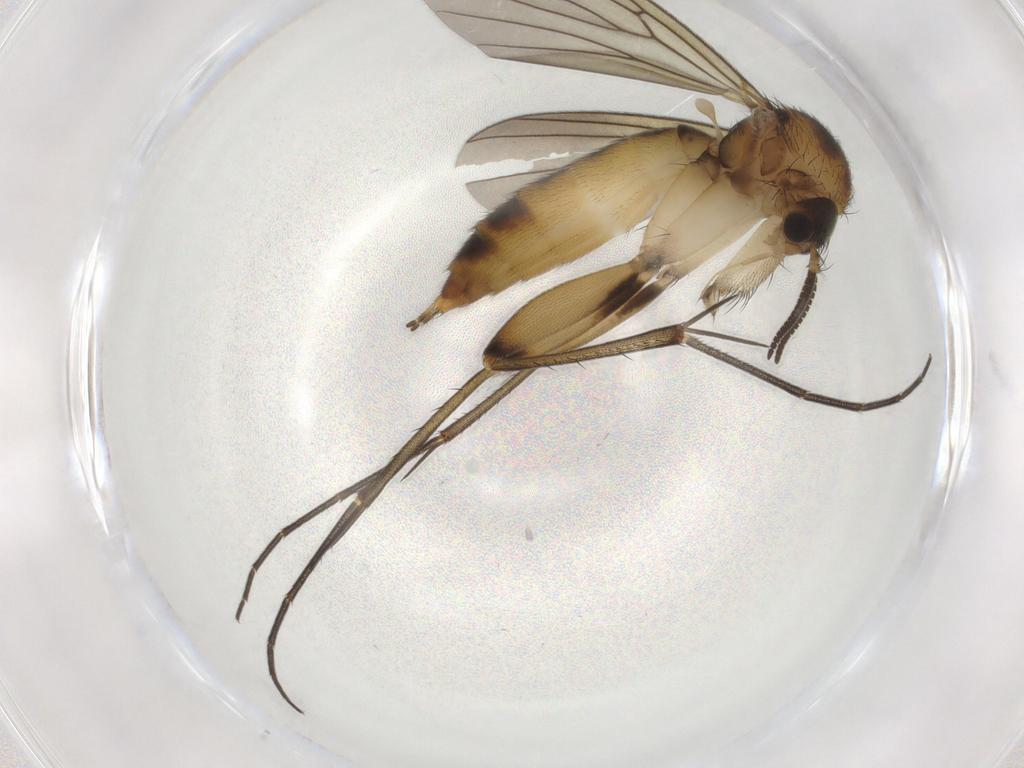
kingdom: Animalia
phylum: Arthropoda
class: Insecta
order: Diptera
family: Mycetophilidae
